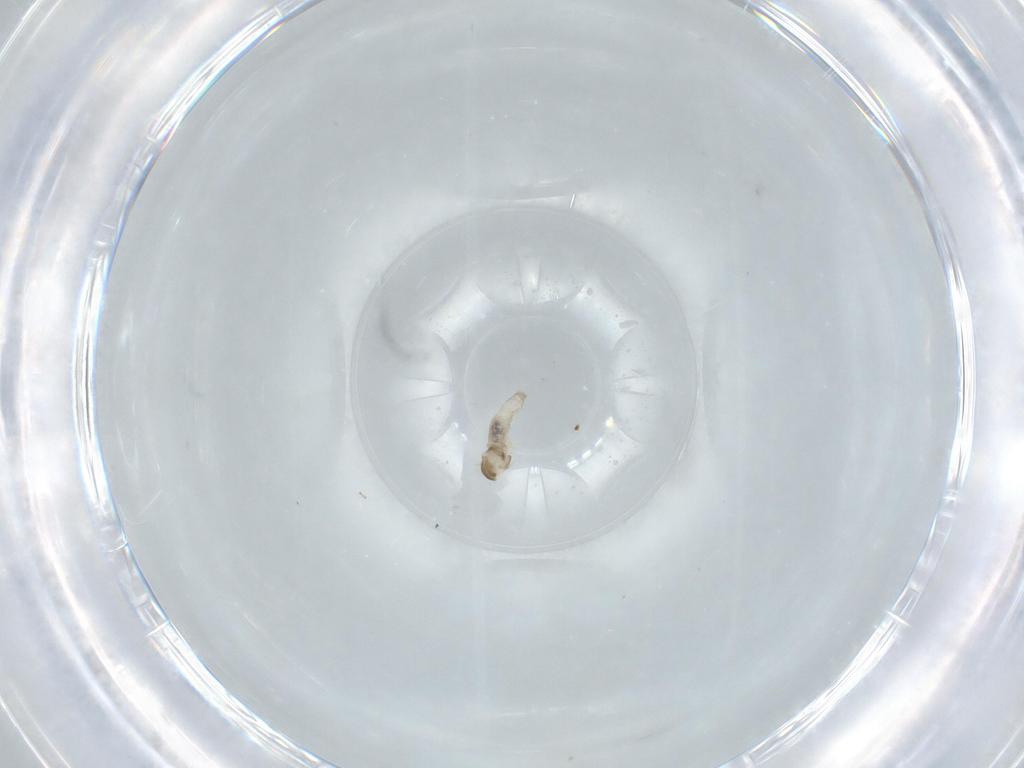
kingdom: Animalia
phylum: Arthropoda
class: Insecta
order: Diptera
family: Cecidomyiidae
